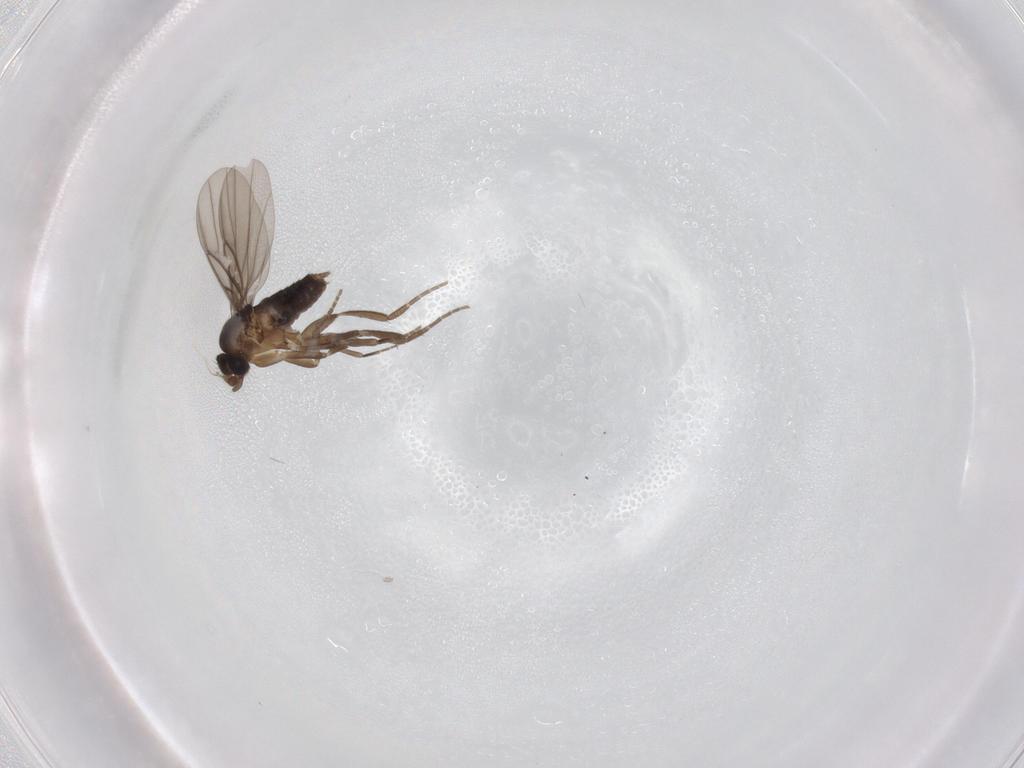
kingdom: Animalia
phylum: Arthropoda
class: Insecta
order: Diptera
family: Phoridae
